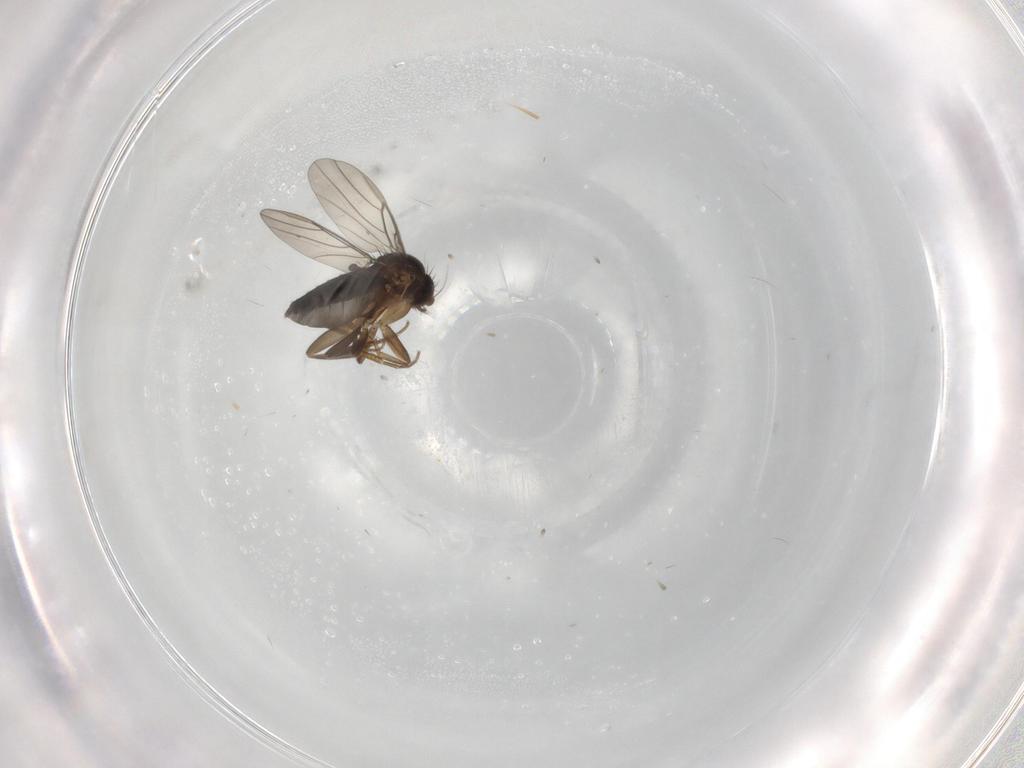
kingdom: Animalia
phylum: Arthropoda
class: Insecta
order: Diptera
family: Phoridae
